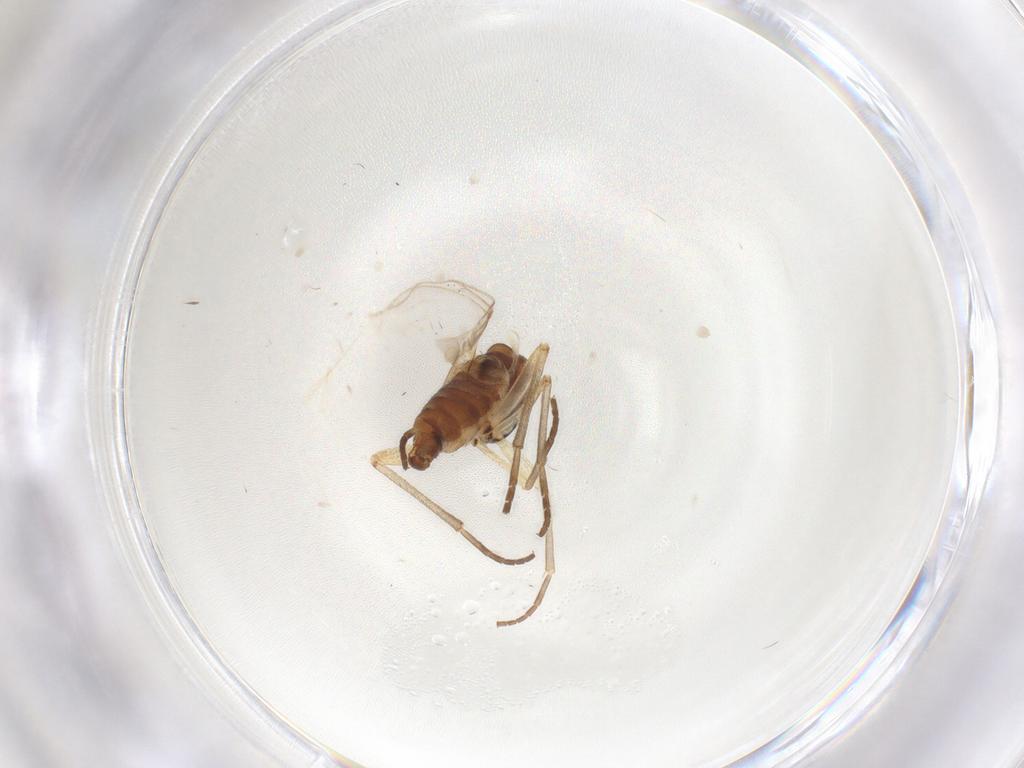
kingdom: Animalia
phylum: Arthropoda
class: Insecta
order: Diptera
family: Sciaridae
